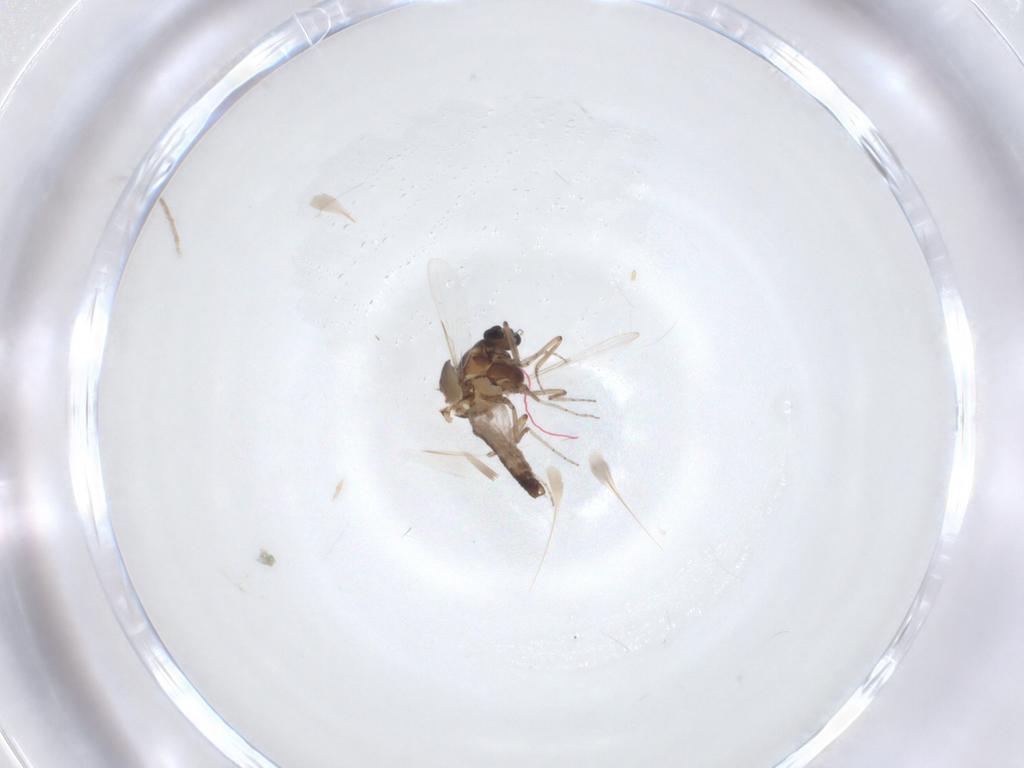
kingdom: Animalia
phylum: Arthropoda
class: Insecta
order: Diptera
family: Ceratopogonidae
